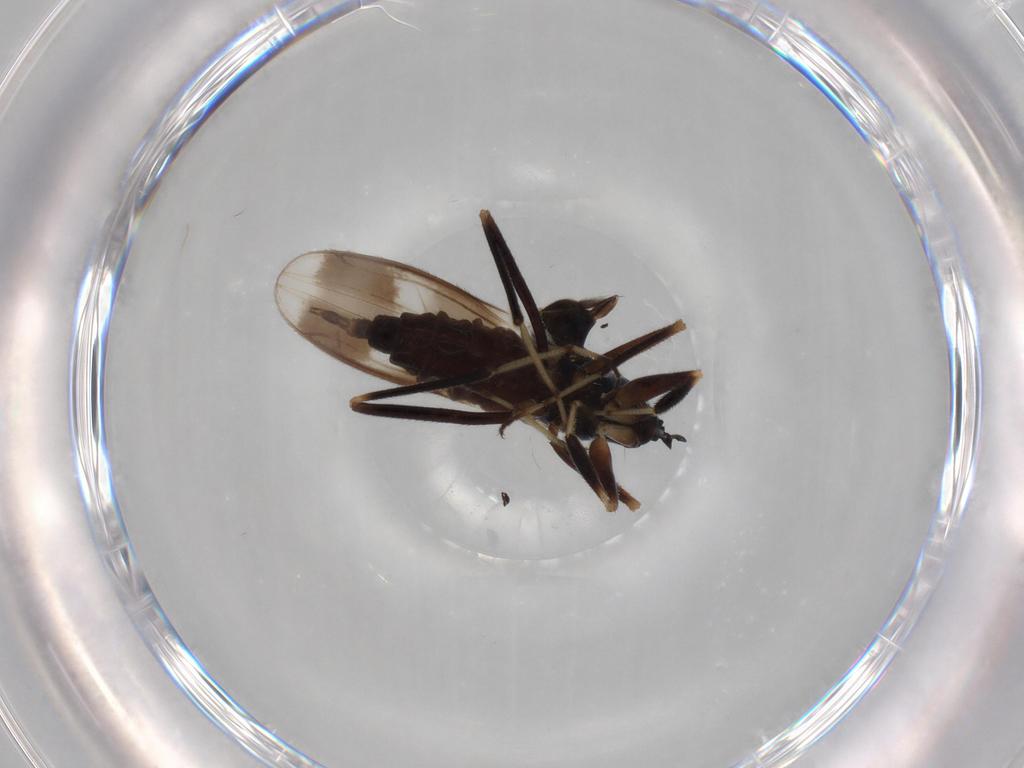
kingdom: Animalia
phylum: Arthropoda
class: Insecta
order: Diptera
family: Hybotidae
